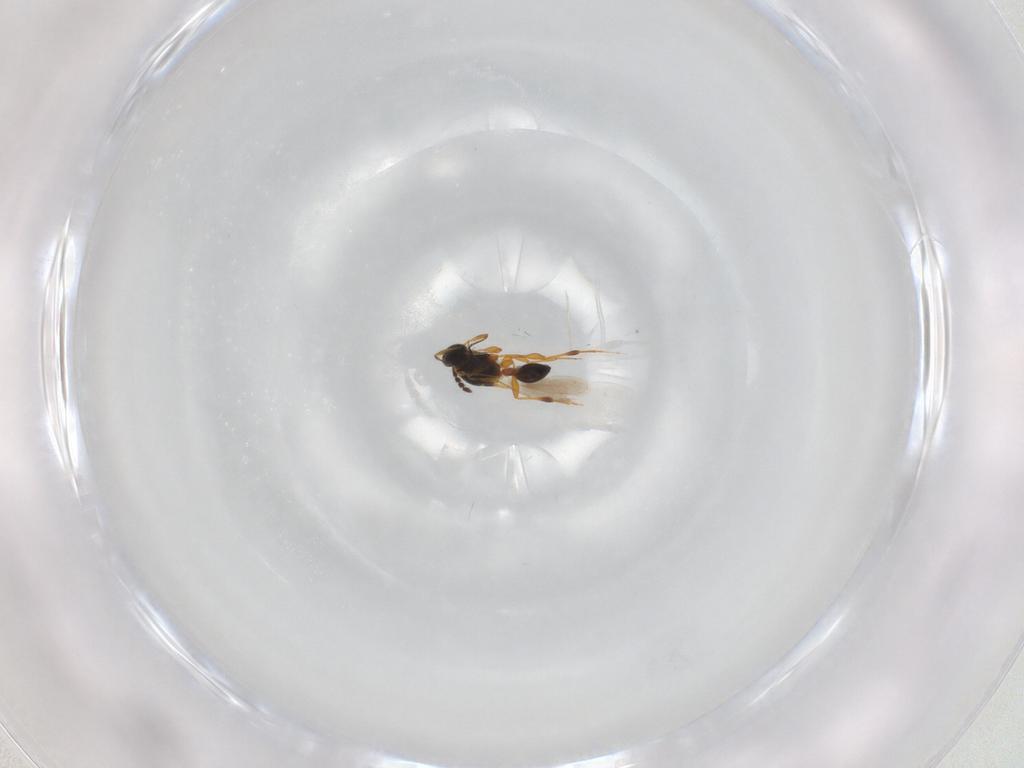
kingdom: Animalia
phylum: Arthropoda
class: Insecta
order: Hymenoptera
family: Platygastridae
